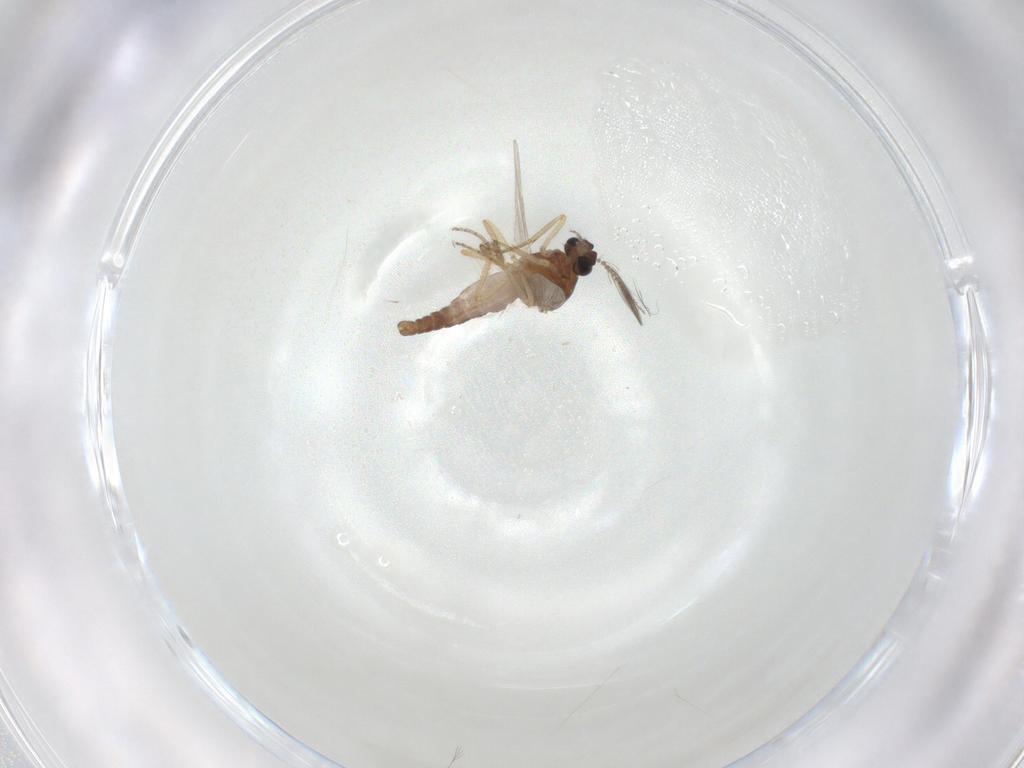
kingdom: Animalia
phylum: Arthropoda
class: Insecta
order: Diptera
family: Ceratopogonidae
